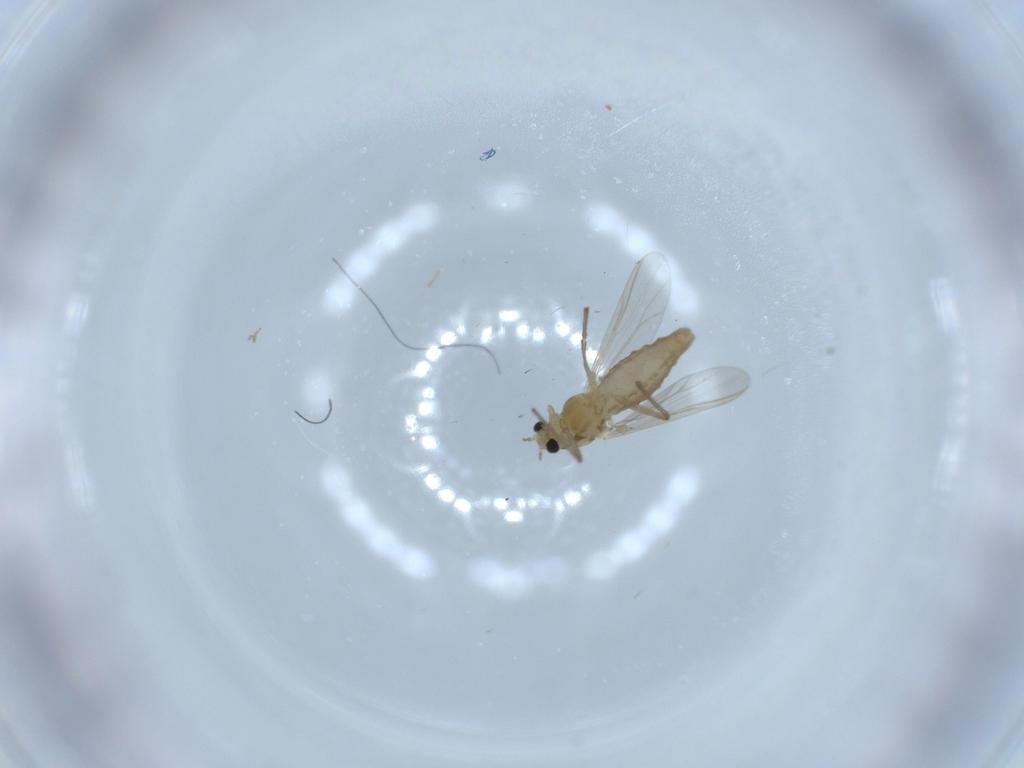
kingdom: Animalia
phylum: Arthropoda
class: Insecta
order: Diptera
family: Chironomidae
